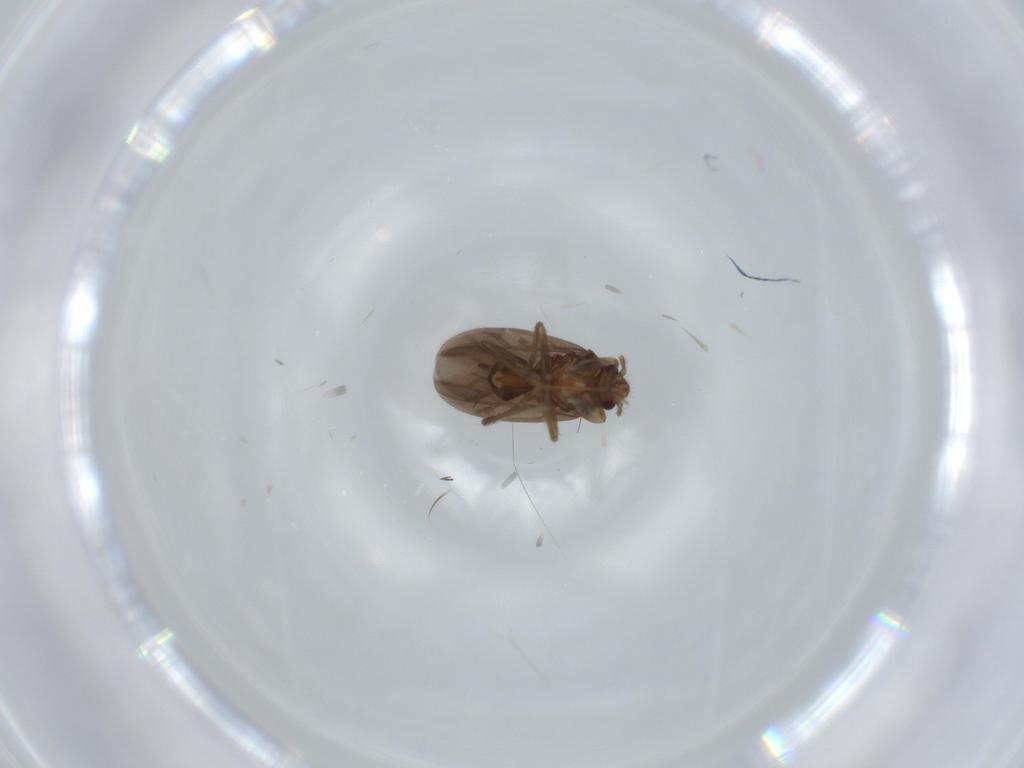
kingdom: Animalia
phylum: Arthropoda
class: Insecta
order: Hemiptera
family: Ceratocombidae
